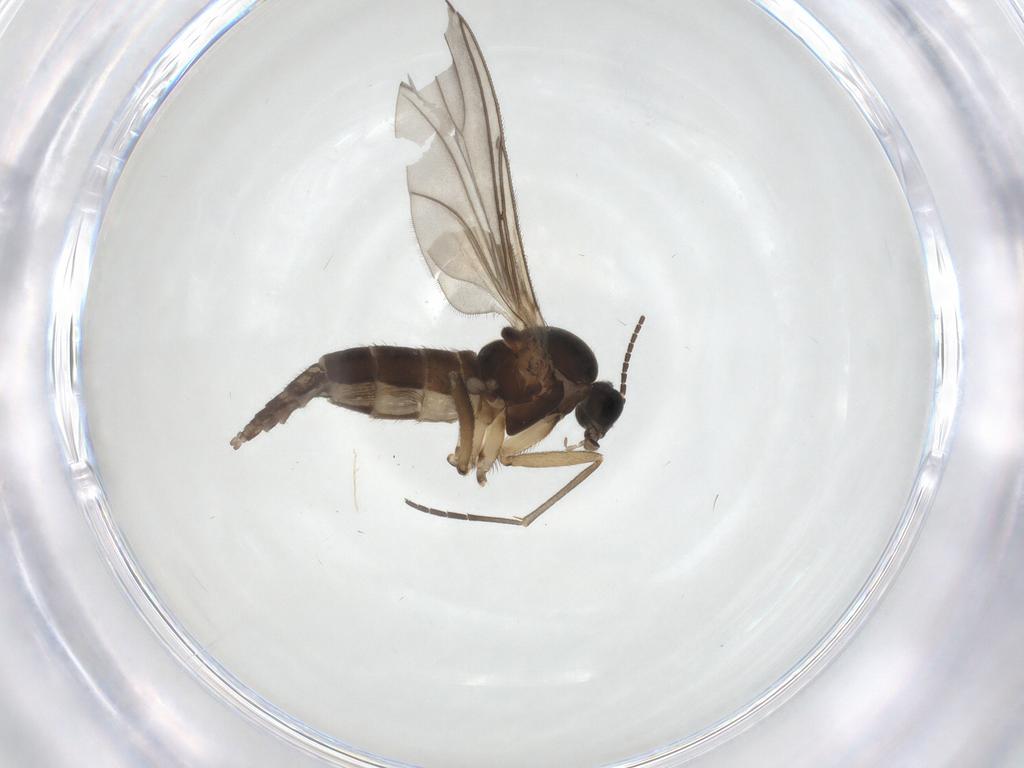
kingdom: Animalia
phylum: Arthropoda
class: Insecta
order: Diptera
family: Sciaridae
